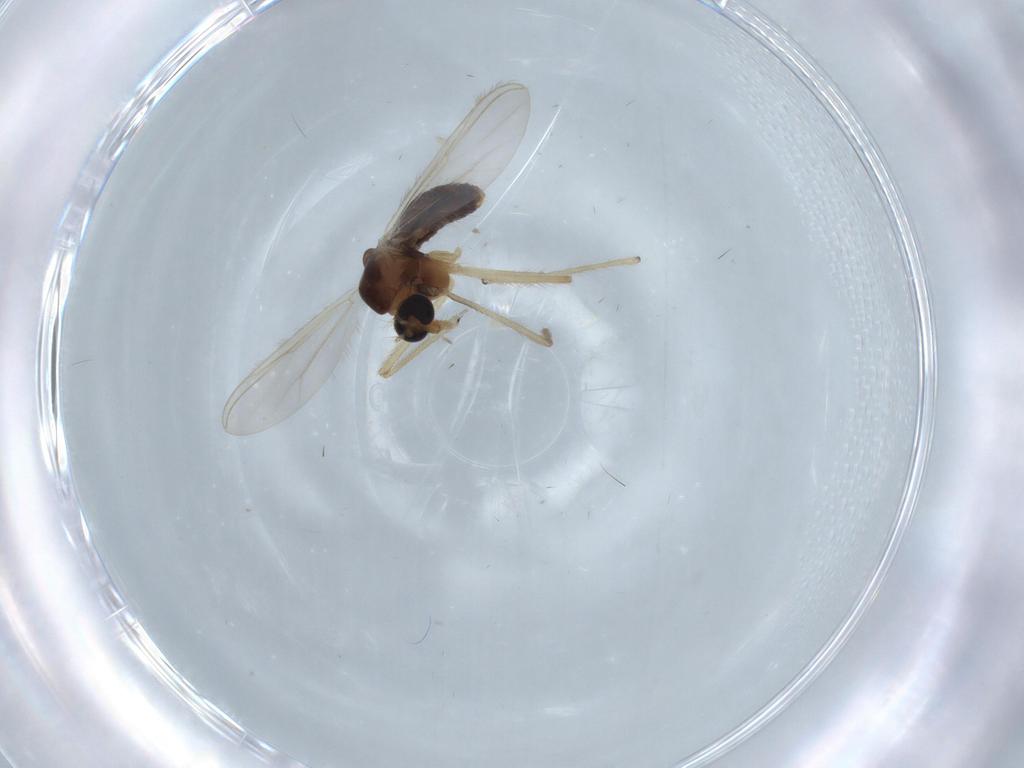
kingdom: Animalia
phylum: Arthropoda
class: Insecta
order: Diptera
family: Chironomidae
